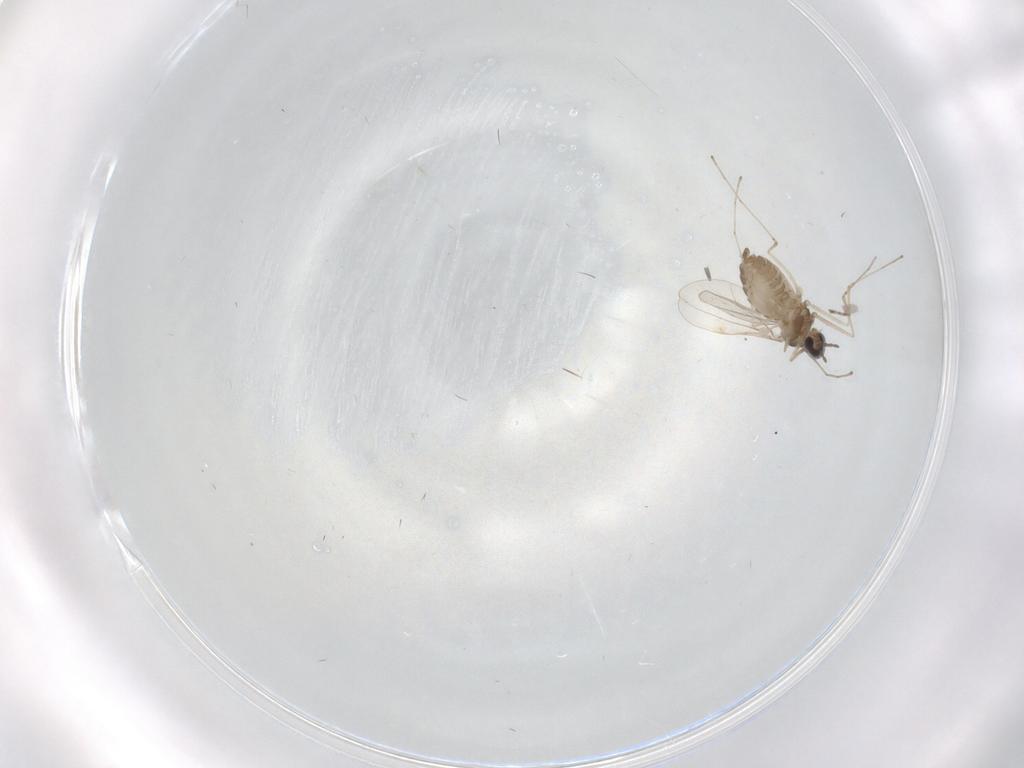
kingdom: Animalia
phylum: Arthropoda
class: Insecta
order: Diptera
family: Cecidomyiidae
